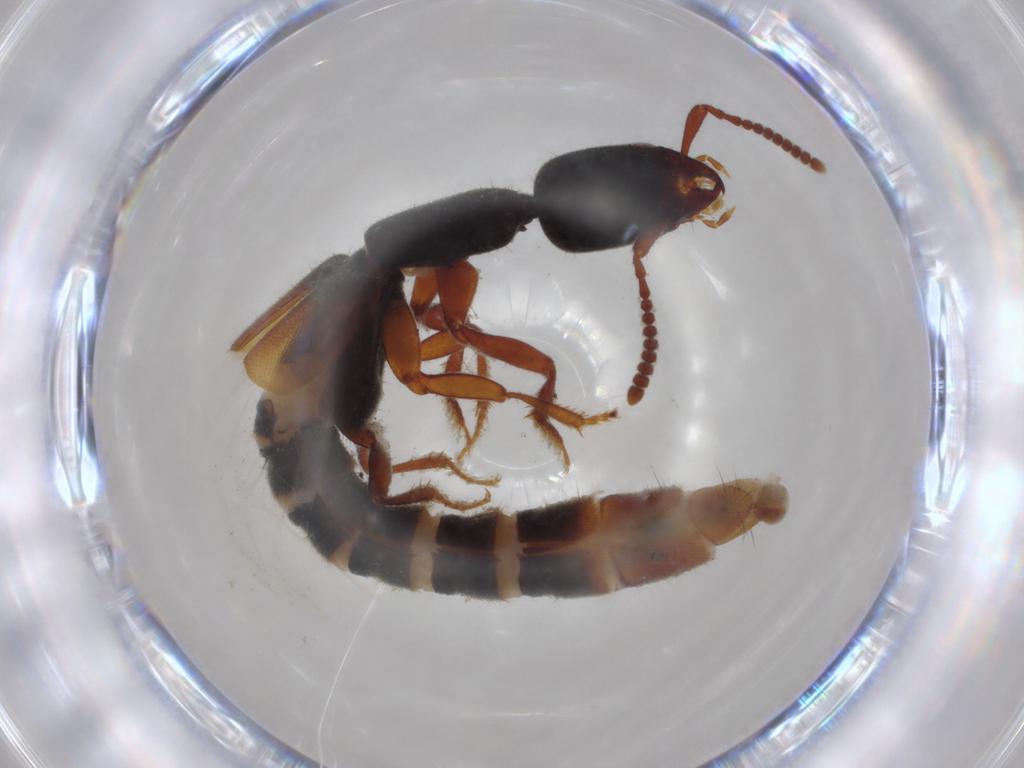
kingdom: Animalia
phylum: Arthropoda
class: Insecta
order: Coleoptera
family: Staphylinidae
